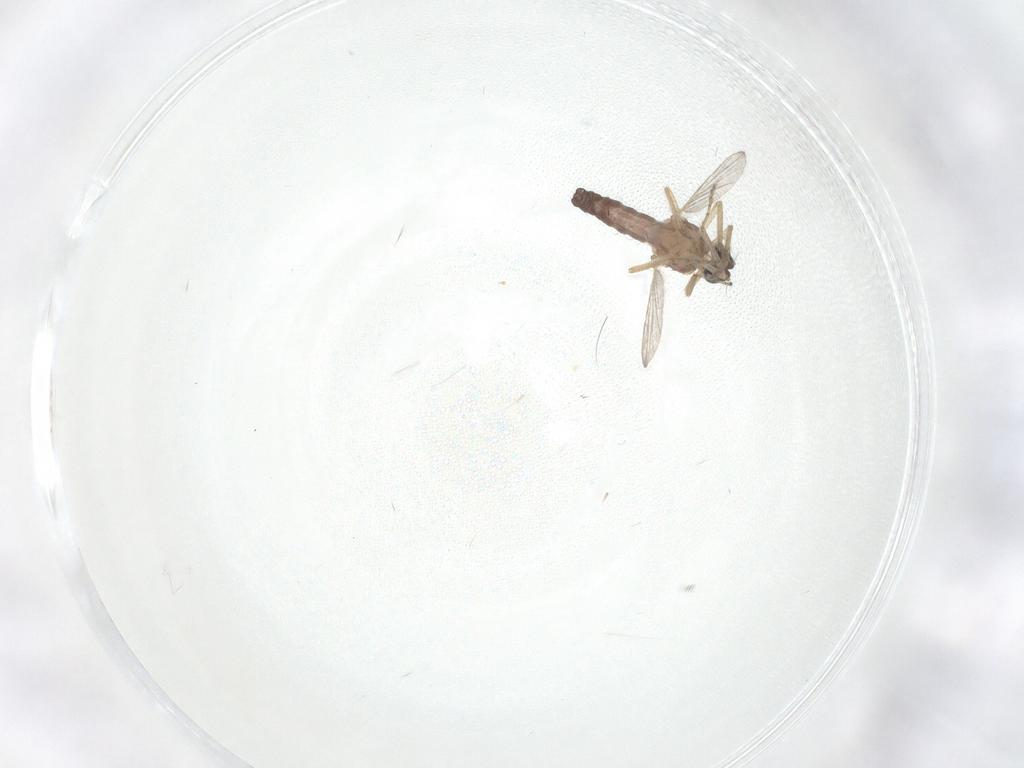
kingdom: Animalia
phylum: Arthropoda
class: Insecta
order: Diptera
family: Ceratopogonidae
